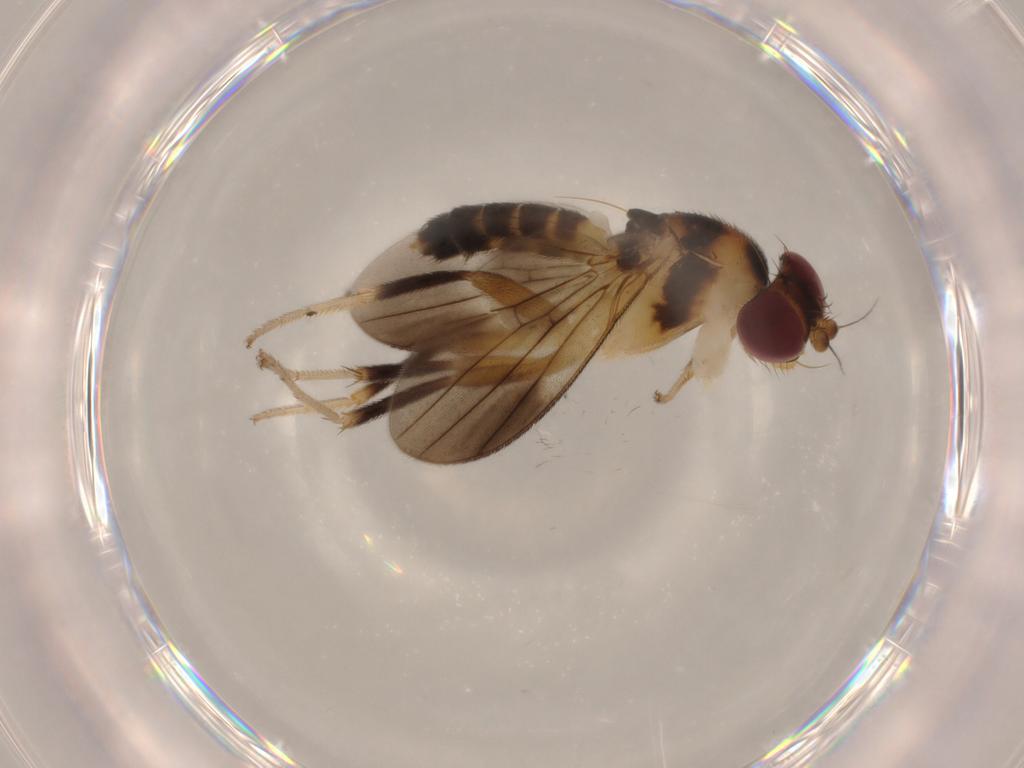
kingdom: Animalia
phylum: Arthropoda
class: Insecta
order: Diptera
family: Clusiidae
